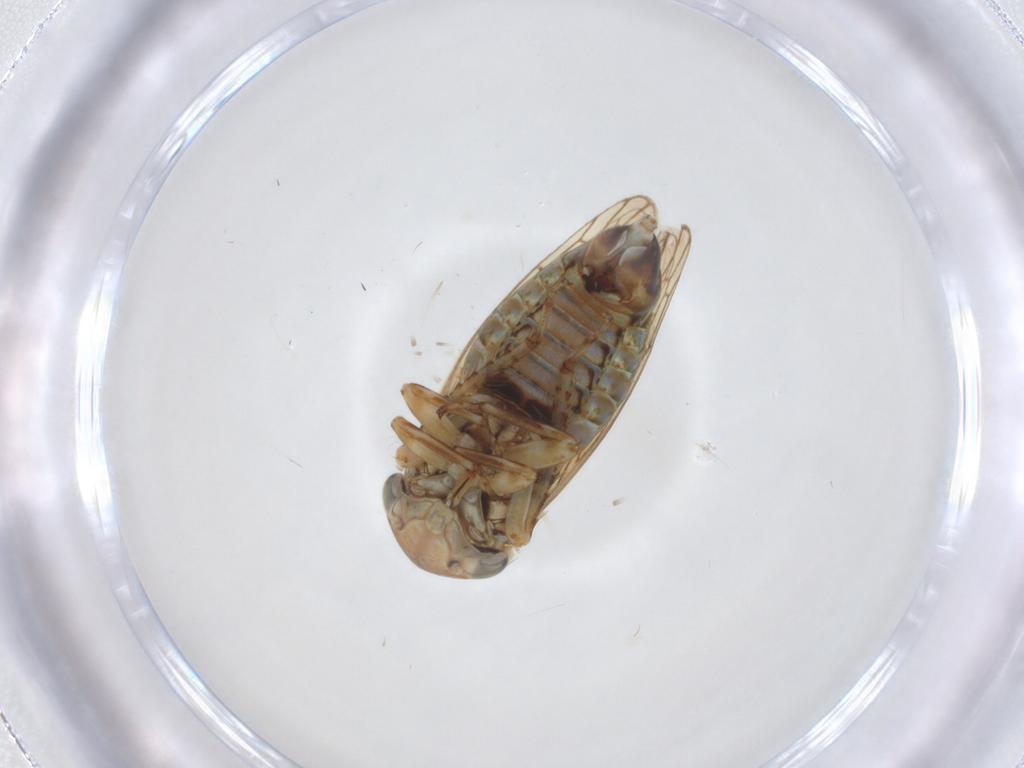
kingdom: Animalia
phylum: Arthropoda
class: Insecta
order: Hemiptera
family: Cicadellidae
